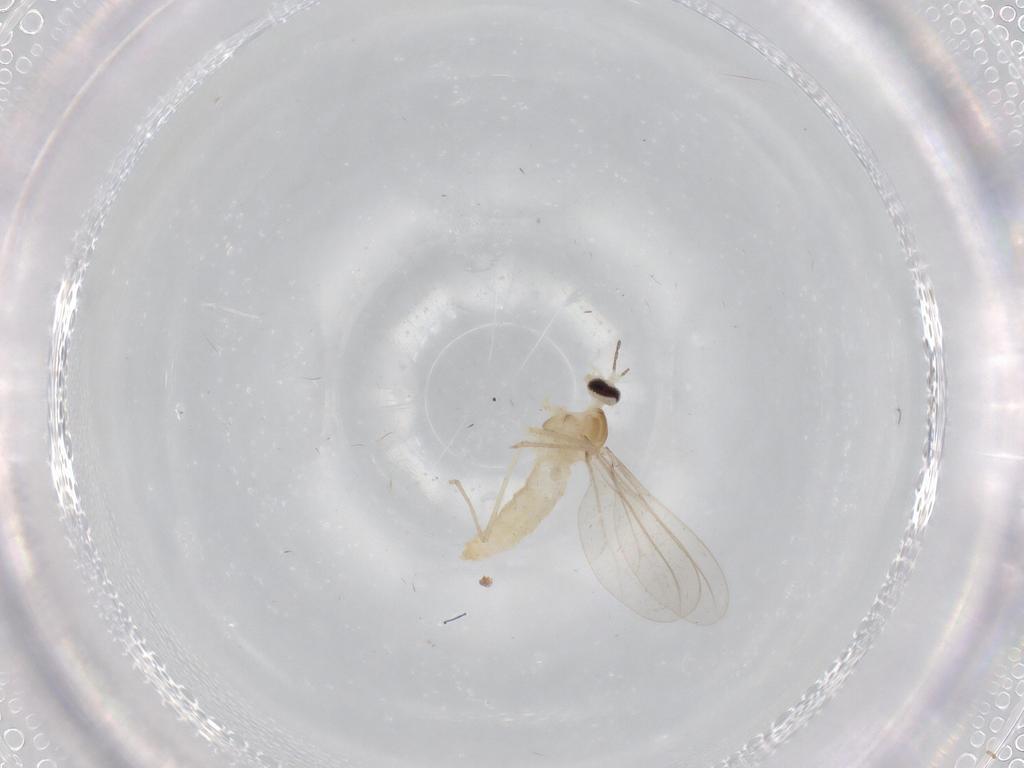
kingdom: Animalia
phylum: Arthropoda
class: Insecta
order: Diptera
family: Cecidomyiidae
